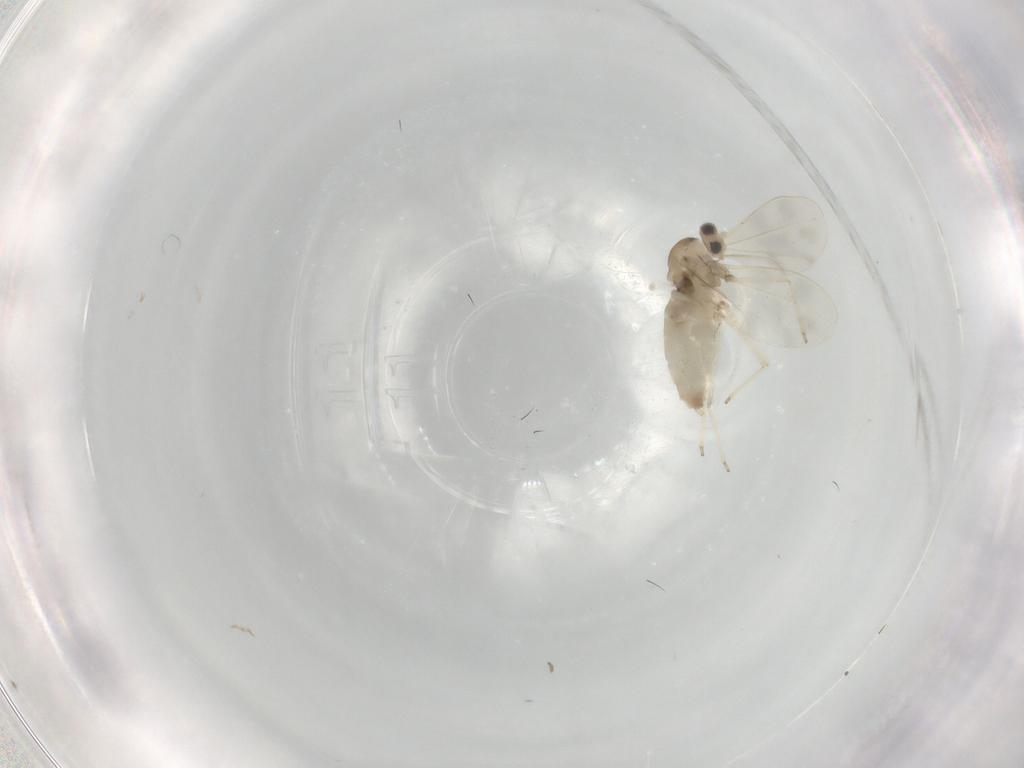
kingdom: Animalia
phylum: Arthropoda
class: Insecta
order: Diptera
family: Cecidomyiidae
